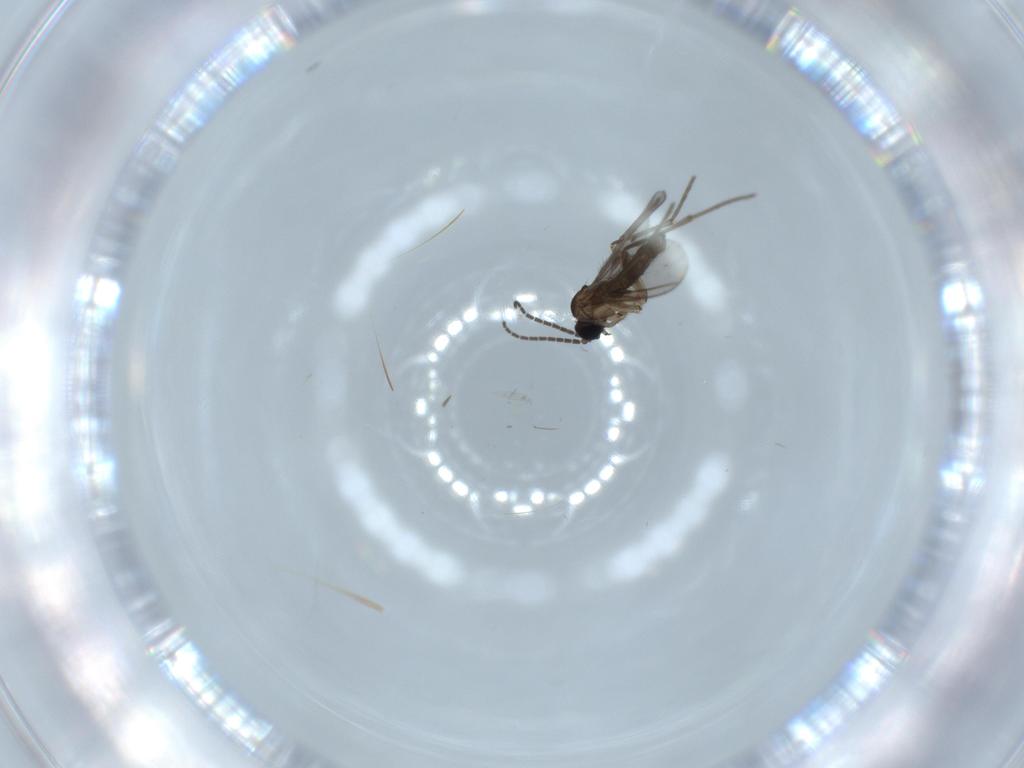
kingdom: Animalia
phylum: Arthropoda
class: Insecta
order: Diptera
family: Sciaridae
